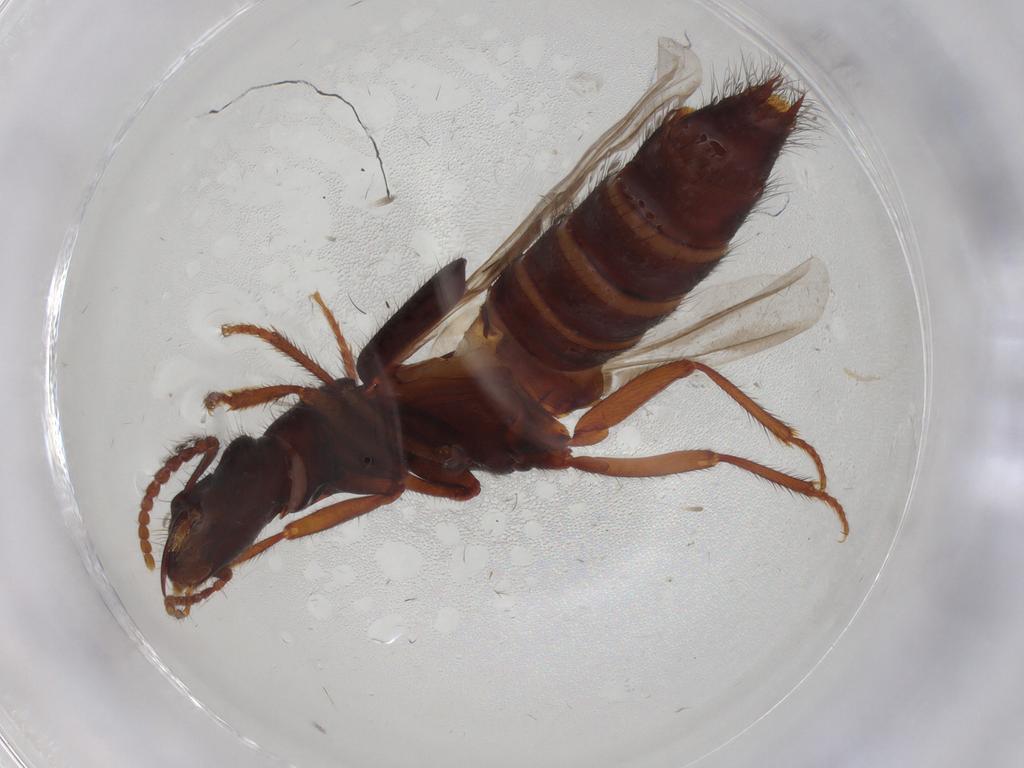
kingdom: Animalia
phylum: Arthropoda
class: Insecta
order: Coleoptera
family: Staphylinidae
